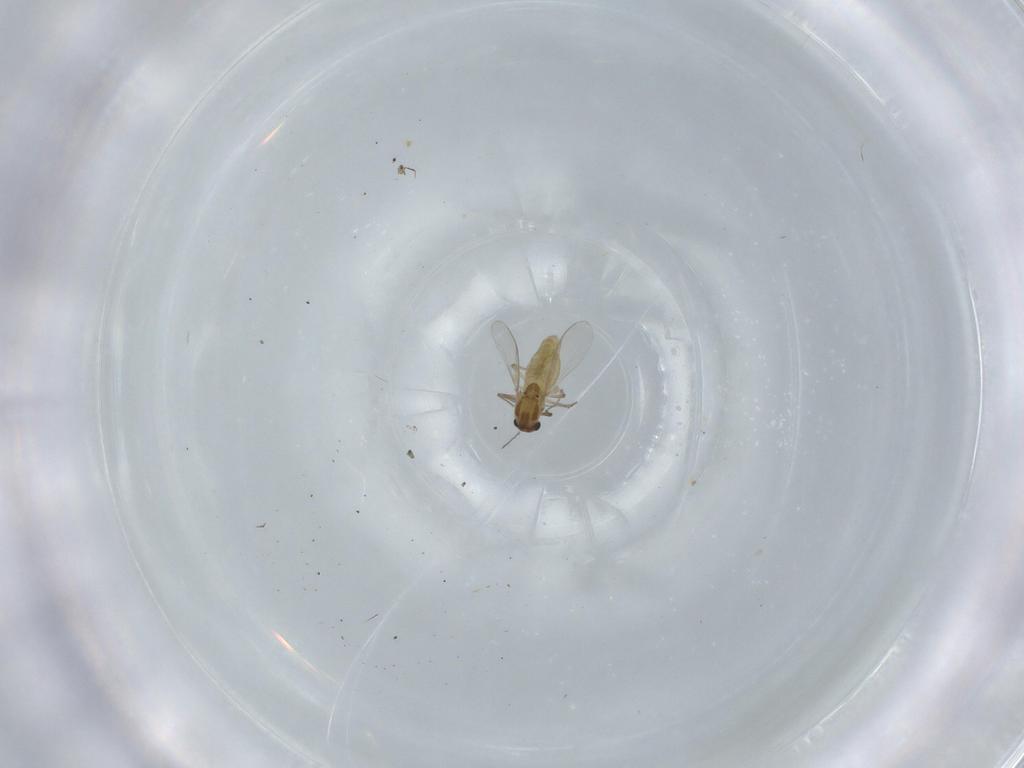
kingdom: Animalia
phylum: Arthropoda
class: Insecta
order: Diptera
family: Chironomidae
